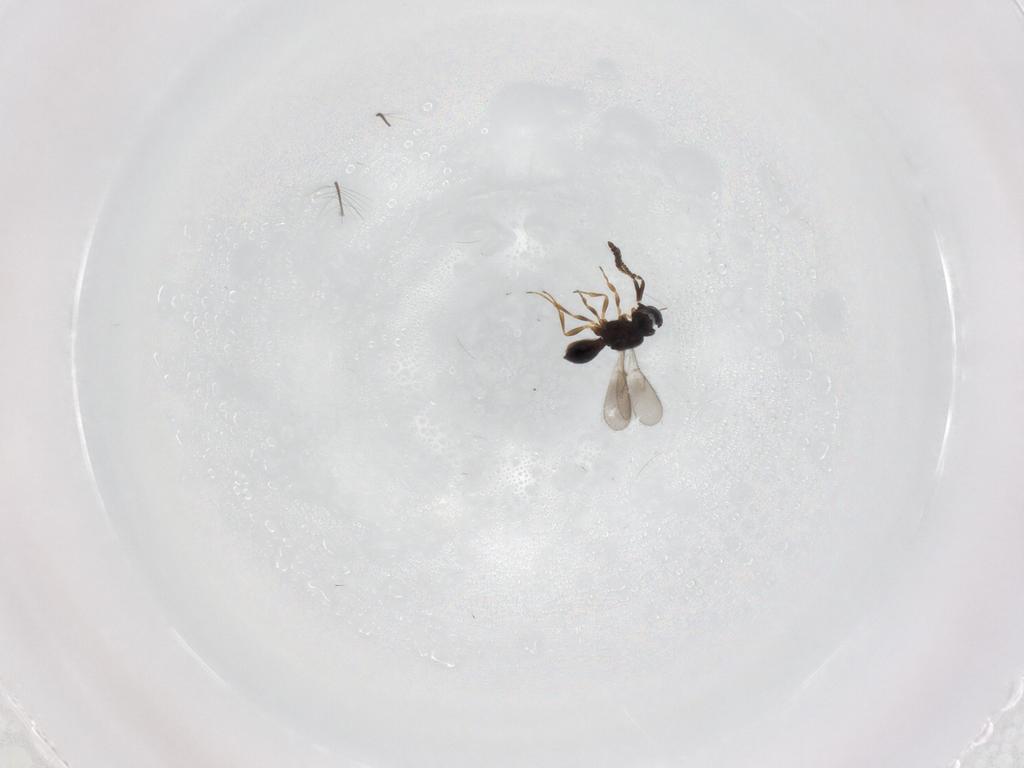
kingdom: Animalia
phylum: Arthropoda
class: Insecta
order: Hymenoptera
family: Scelionidae
